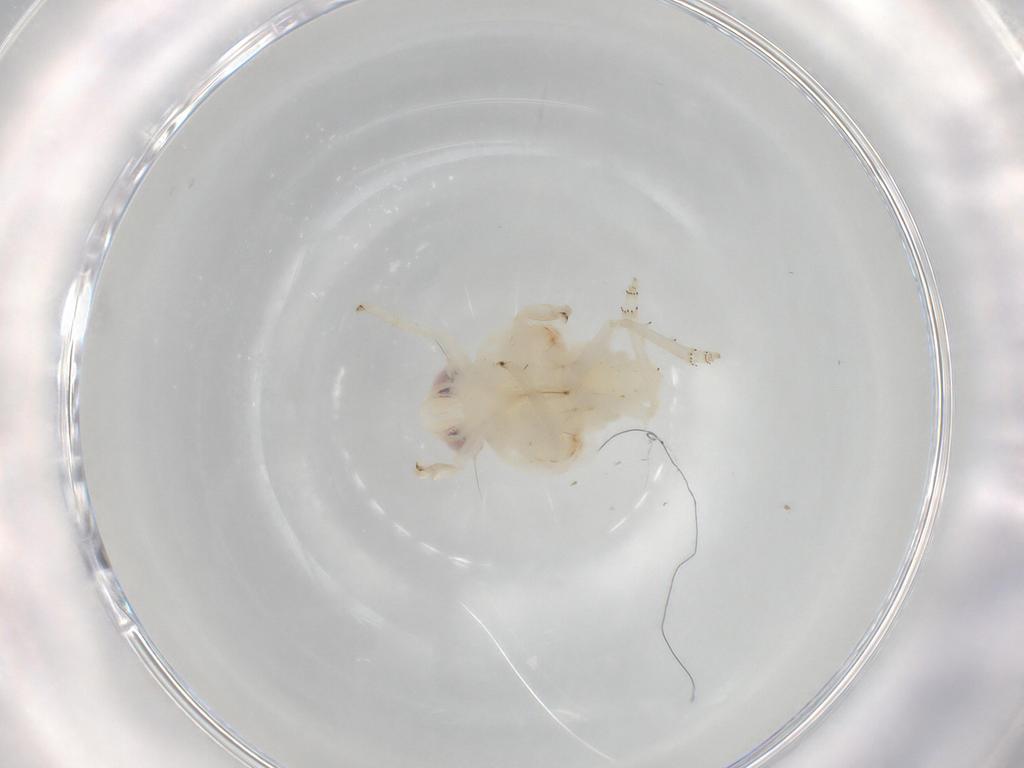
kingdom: Animalia
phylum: Arthropoda
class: Insecta
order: Hemiptera
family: Nogodinidae
